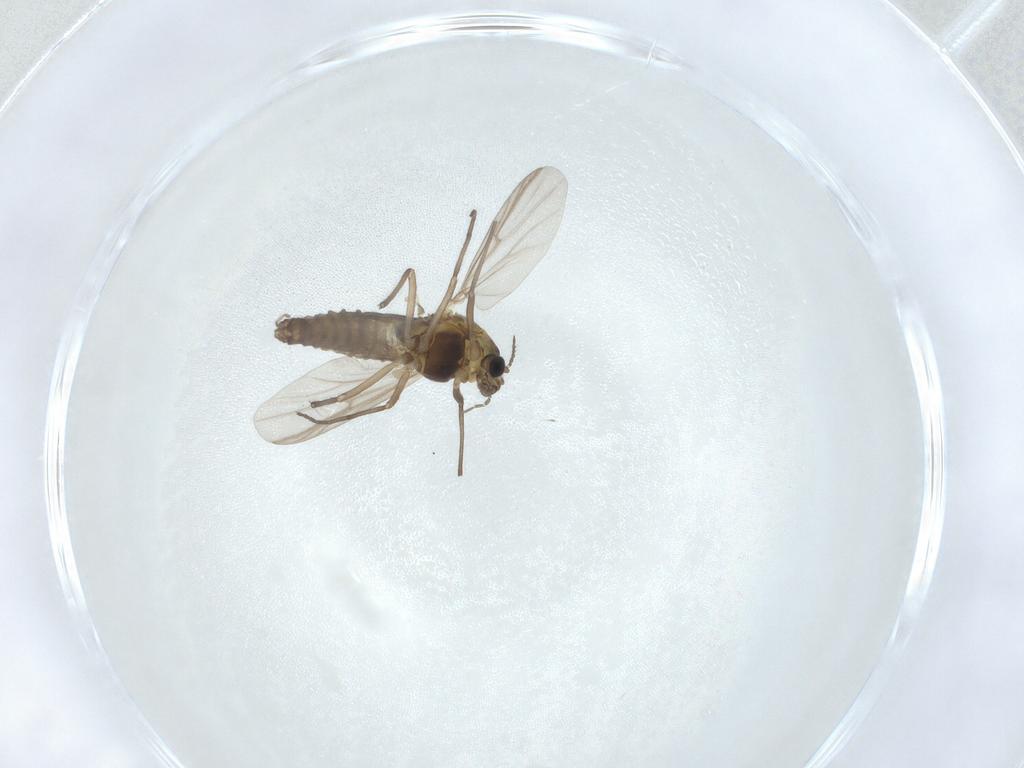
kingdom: Animalia
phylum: Arthropoda
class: Insecta
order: Diptera
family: Chironomidae
